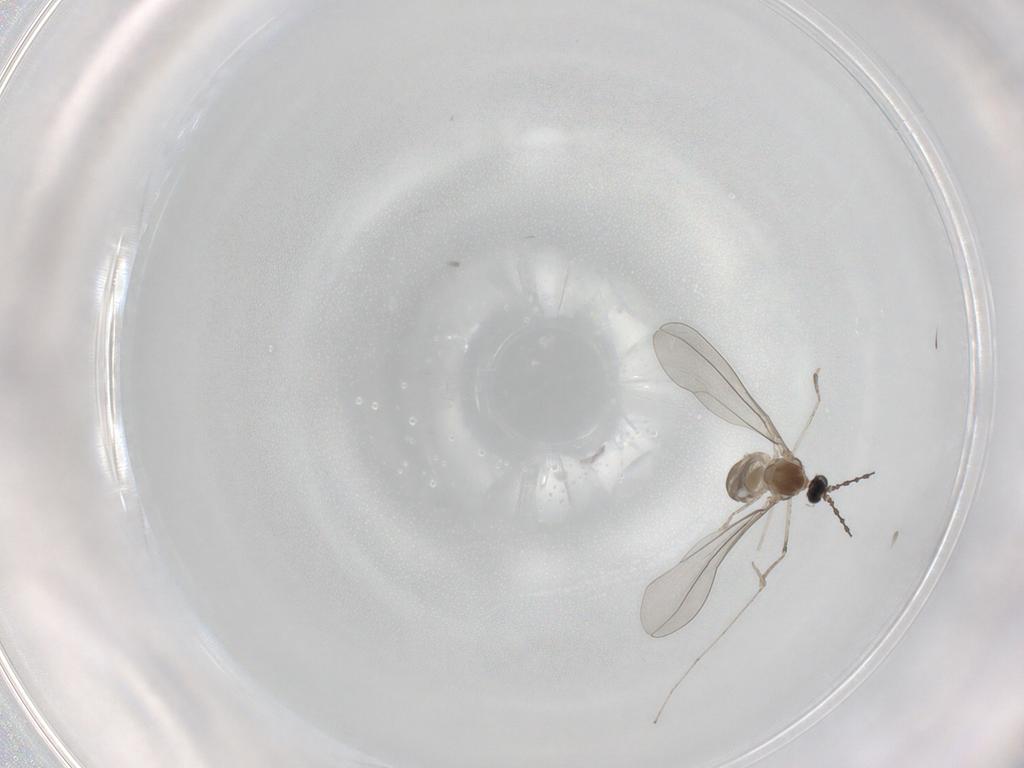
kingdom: Animalia
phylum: Arthropoda
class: Insecta
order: Diptera
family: Cecidomyiidae
